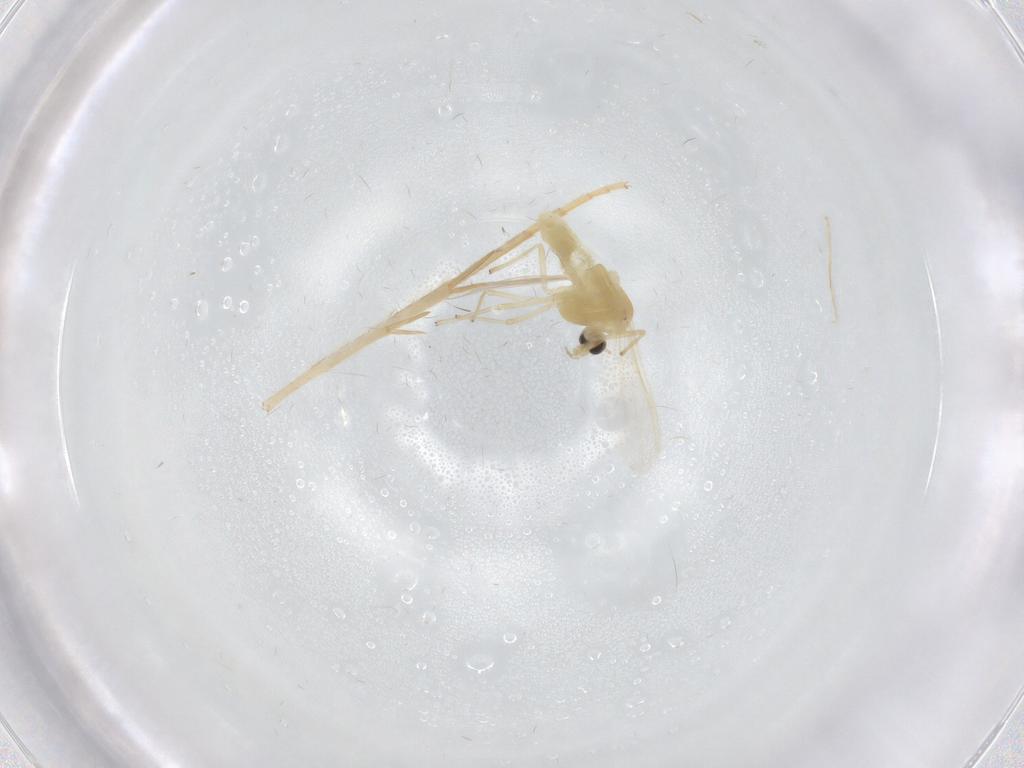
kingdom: Animalia
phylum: Arthropoda
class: Insecta
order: Diptera
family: Chironomidae
